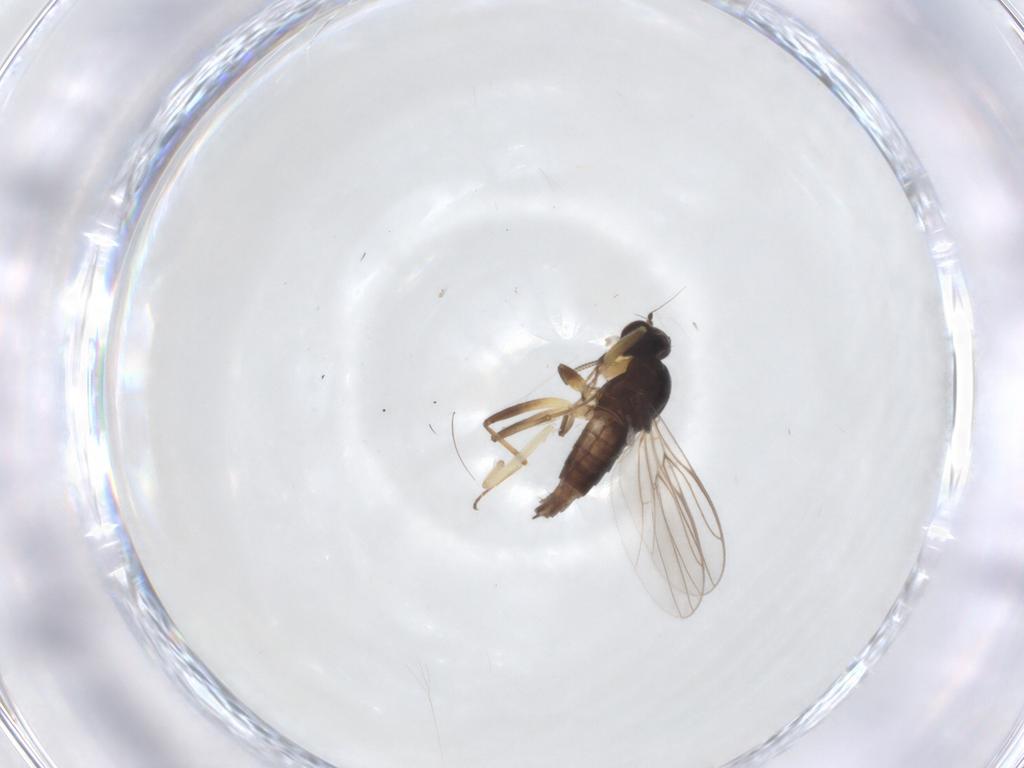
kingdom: Animalia
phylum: Arthropoda
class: Insecta
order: Diptera
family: Hybotidae
